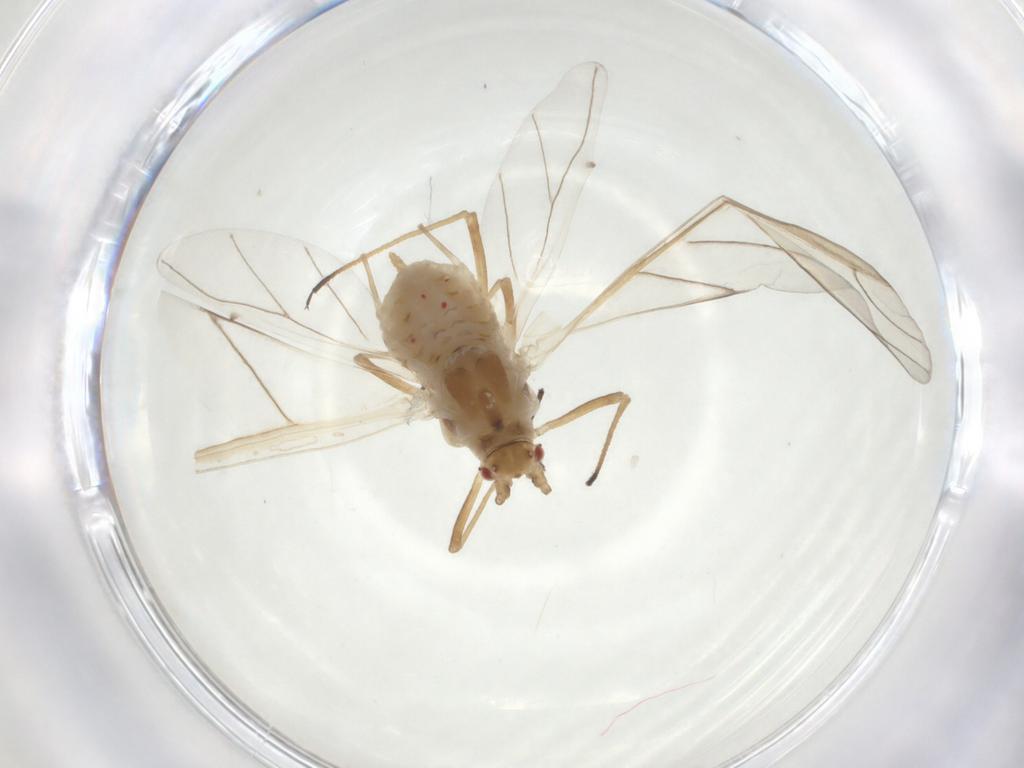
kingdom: Animalia
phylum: Arthropoda
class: Insecta
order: Hemiptera
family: Aphididae
